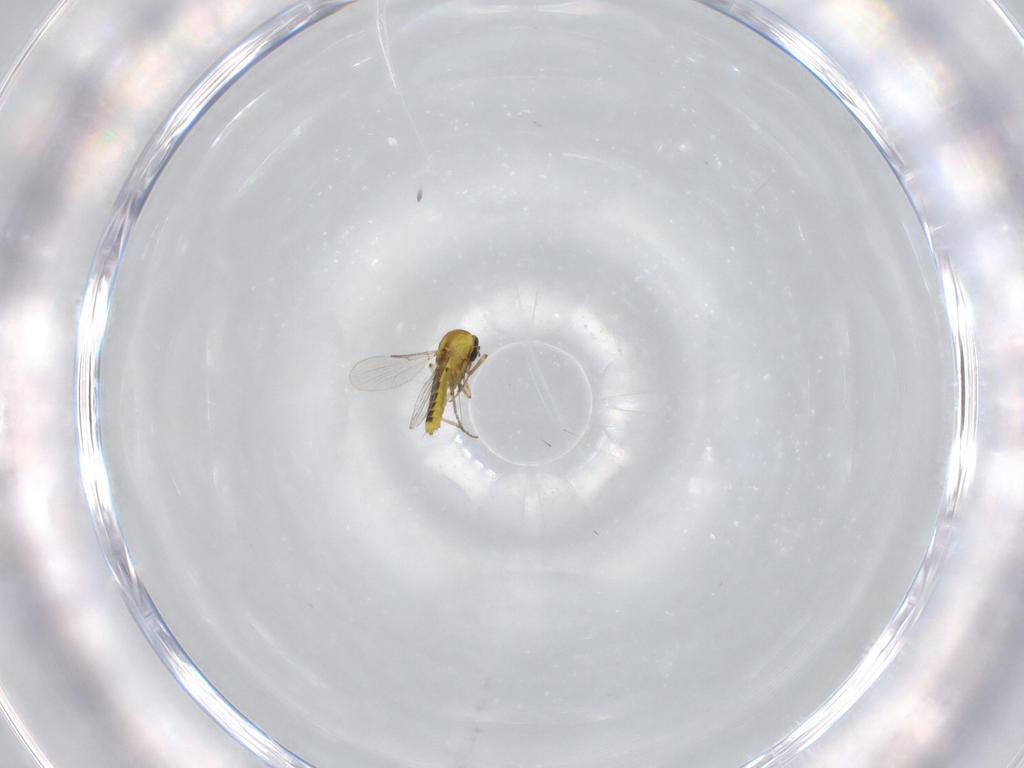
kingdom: Animalia
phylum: Arthropoda
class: Insecta
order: Diptera
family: Ceratopogonidae
